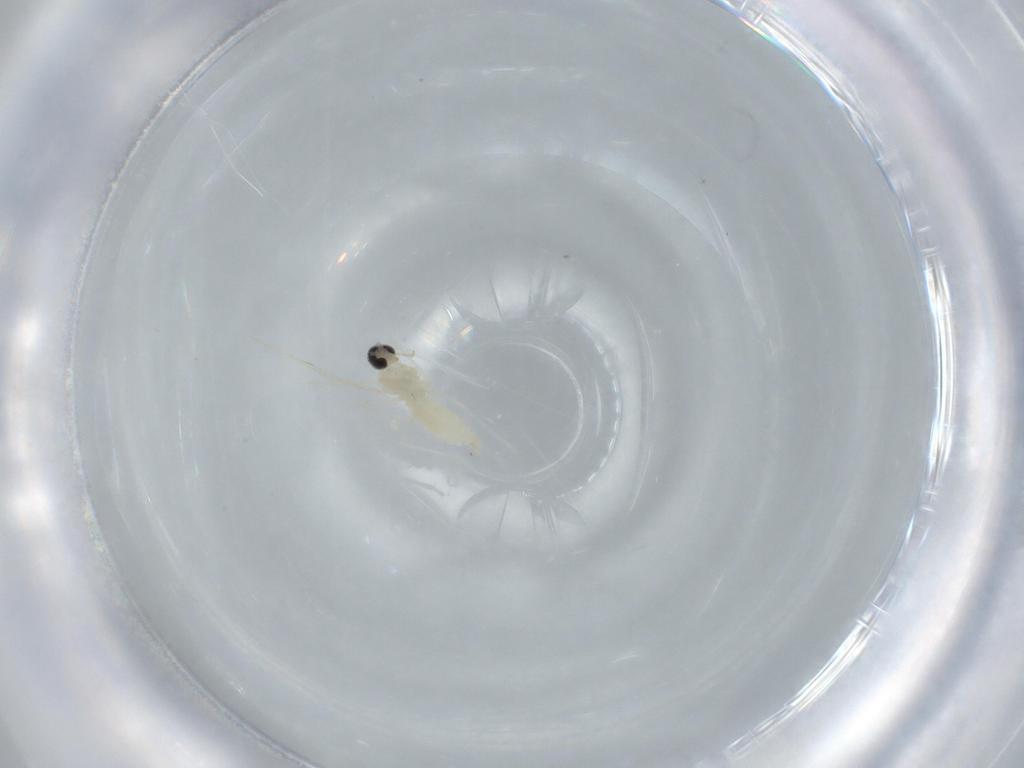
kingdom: Animalia
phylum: Arthropoda
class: Insecta
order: Diptera
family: Cecidomyiidae
